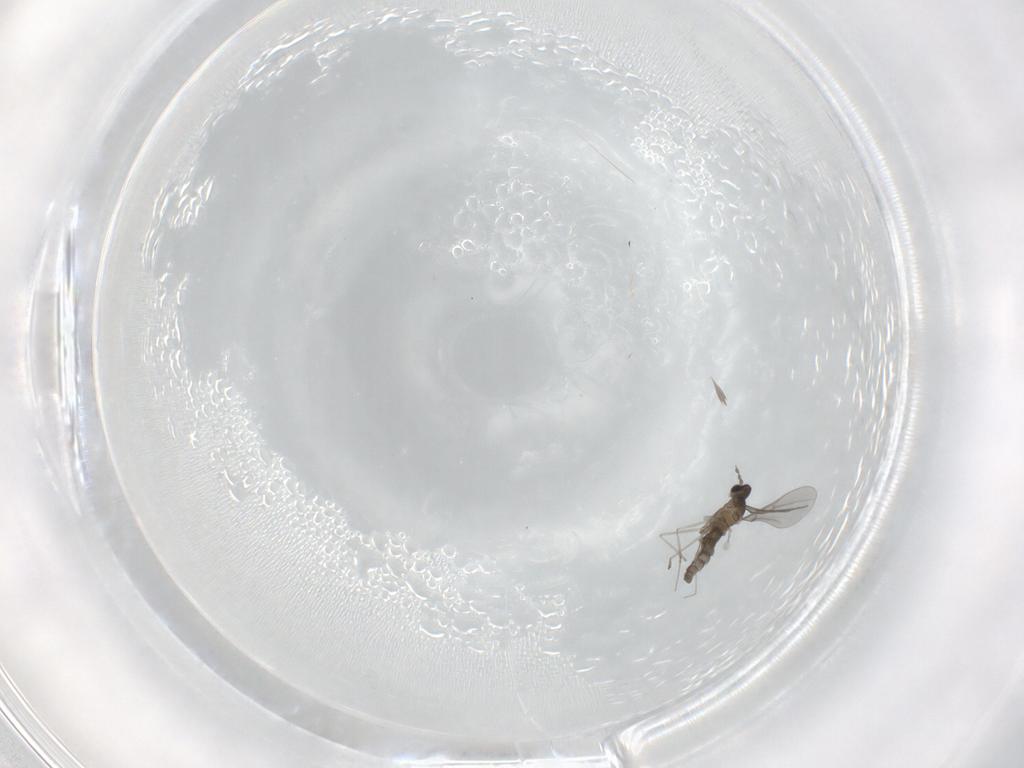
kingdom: Animalia
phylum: Arthropoda
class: Insecta
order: Diptera
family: Cecidomyiidae
